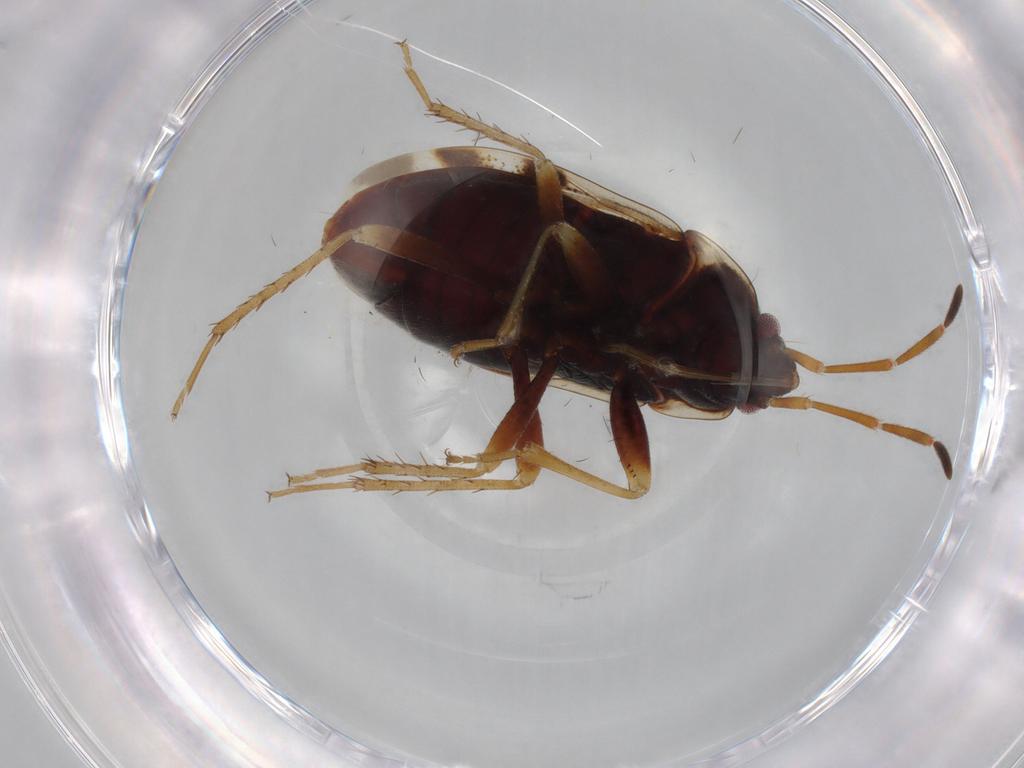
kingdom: Animalia
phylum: Arthropoda
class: Insecta
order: Hemiptera
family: Rhyparochromidae
